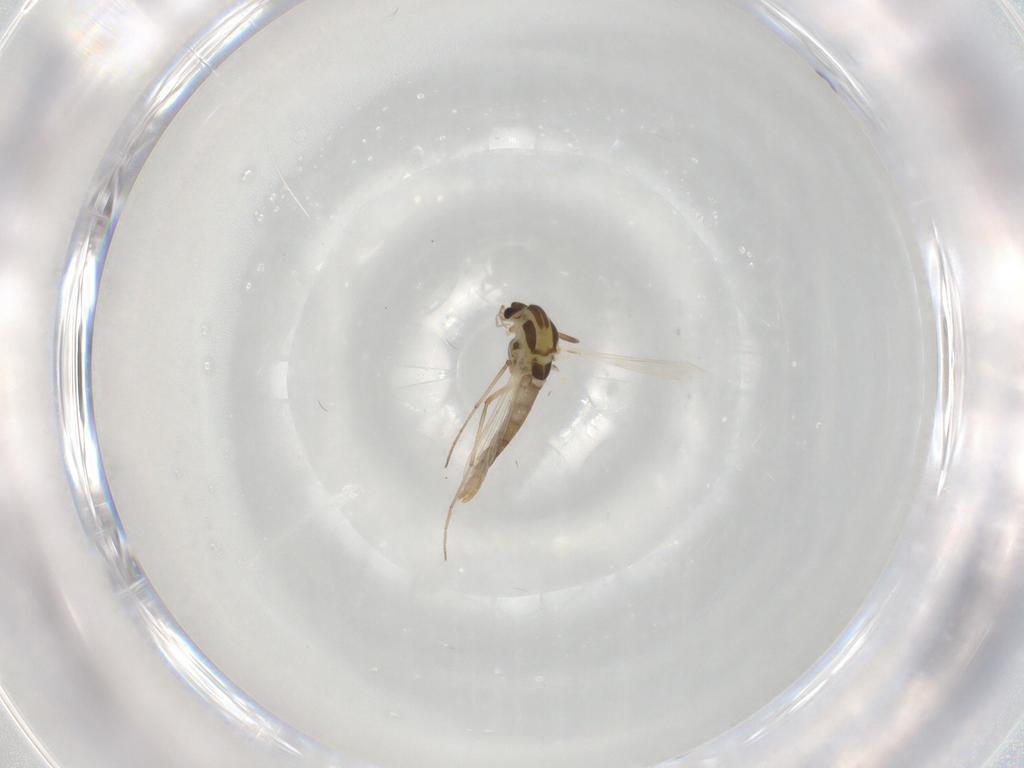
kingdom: Animalia
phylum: Arthropoda
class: Insecta
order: Diptera
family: Chironomidae
